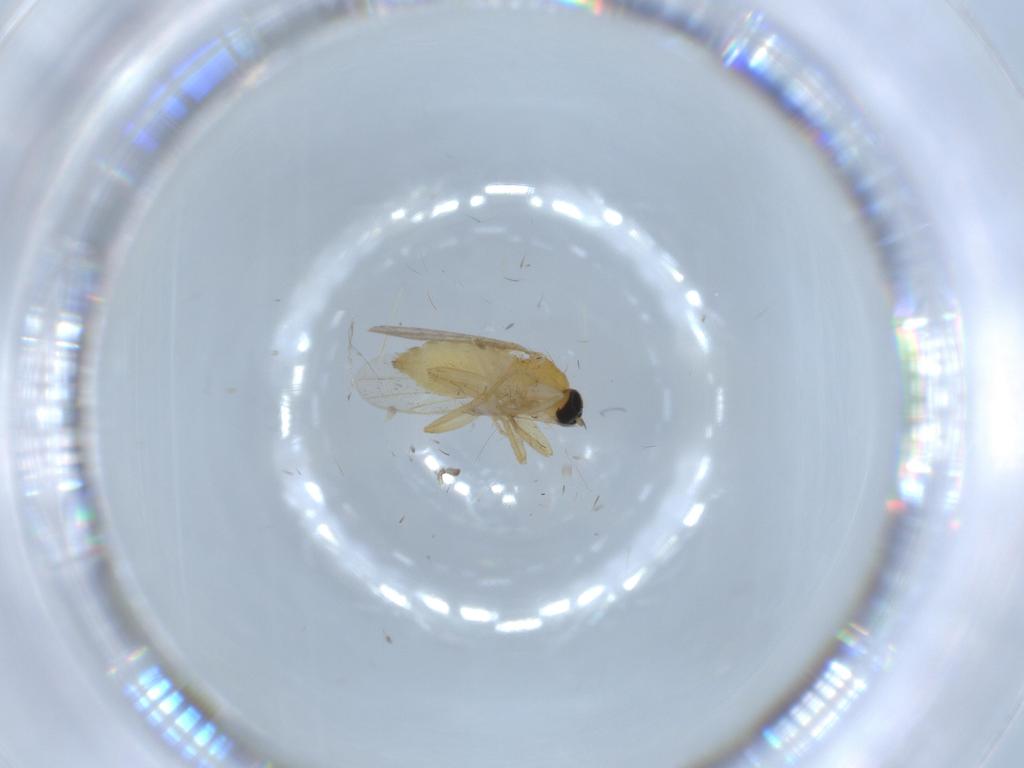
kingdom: Animalia
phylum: Arthropoda
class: Insecta
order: Diptera
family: Hybotidae
